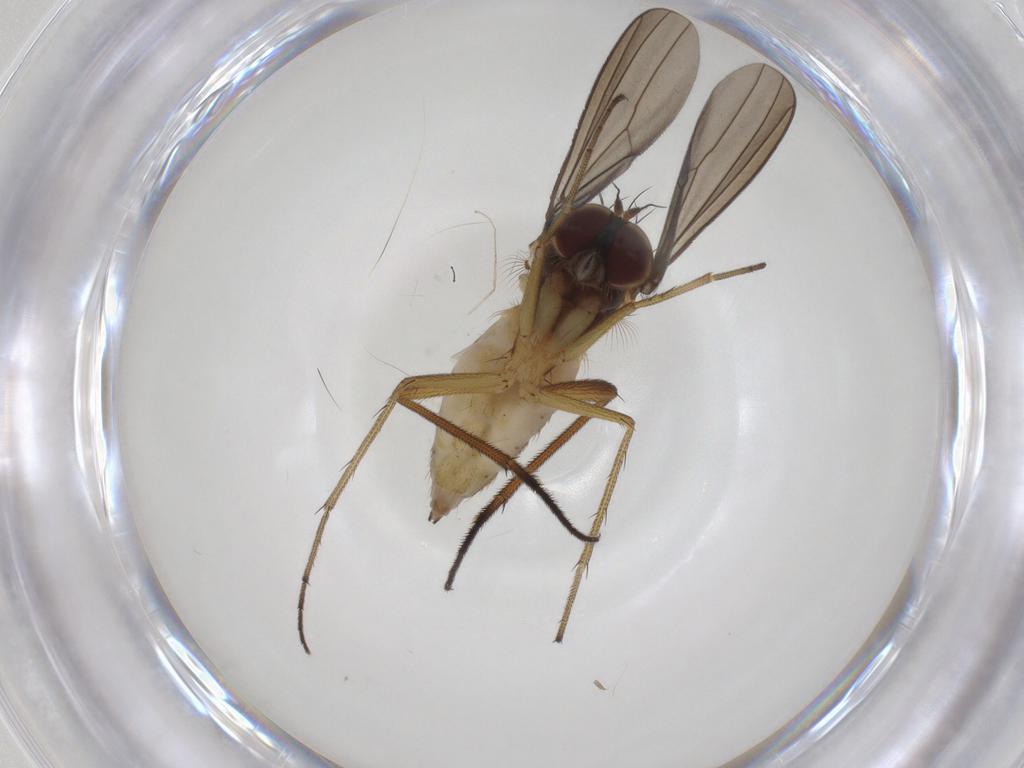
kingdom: Animalia
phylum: Arthropoda
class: Insecta
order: Diptera
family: Dolichopodidae
